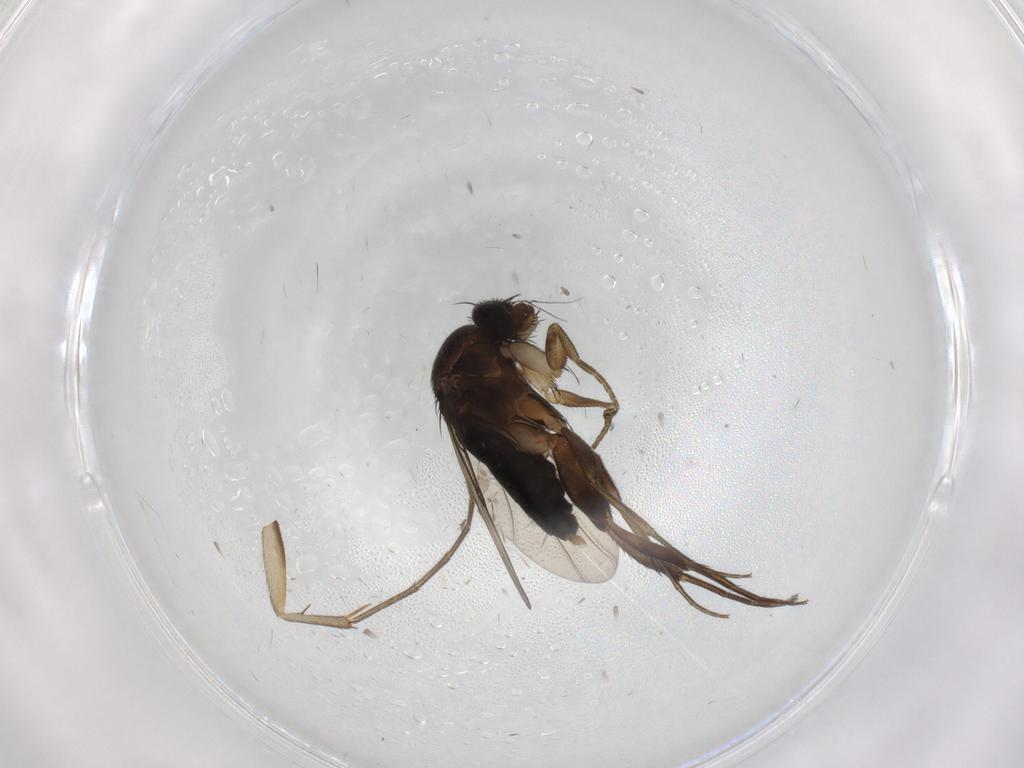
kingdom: Animalia
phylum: Arthropoda
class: Insecta
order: Diptera
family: Phoridae
